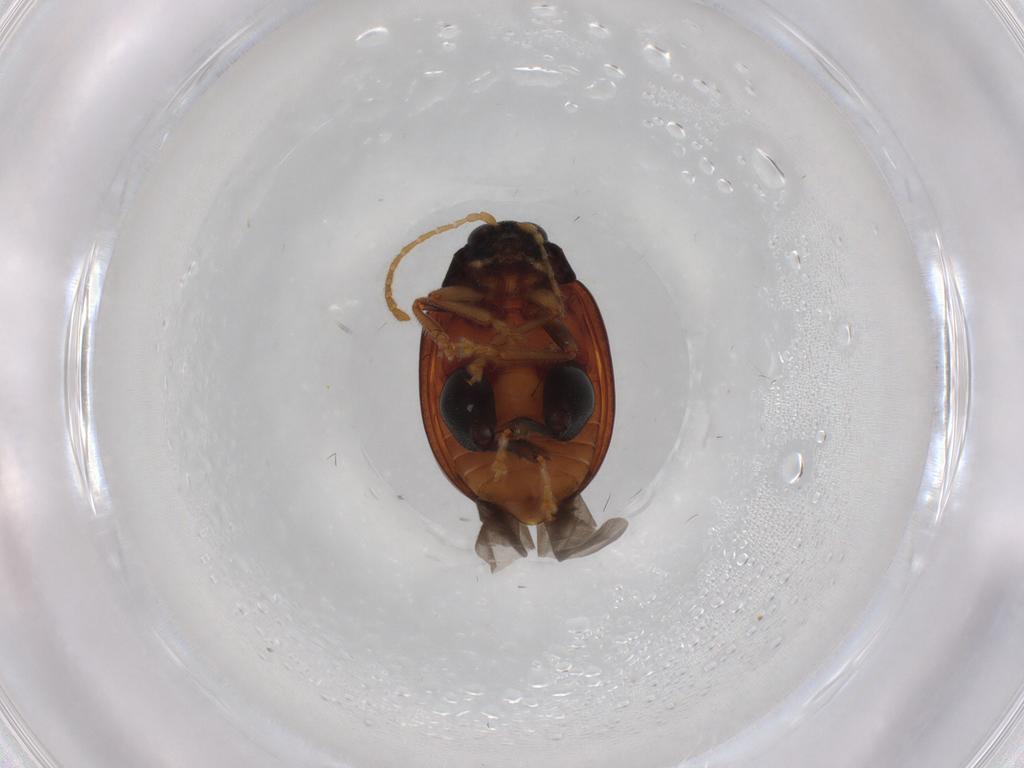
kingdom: Animalia
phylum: Arthropoda
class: Insecta
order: Coleoptera
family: Chrysomelidae
